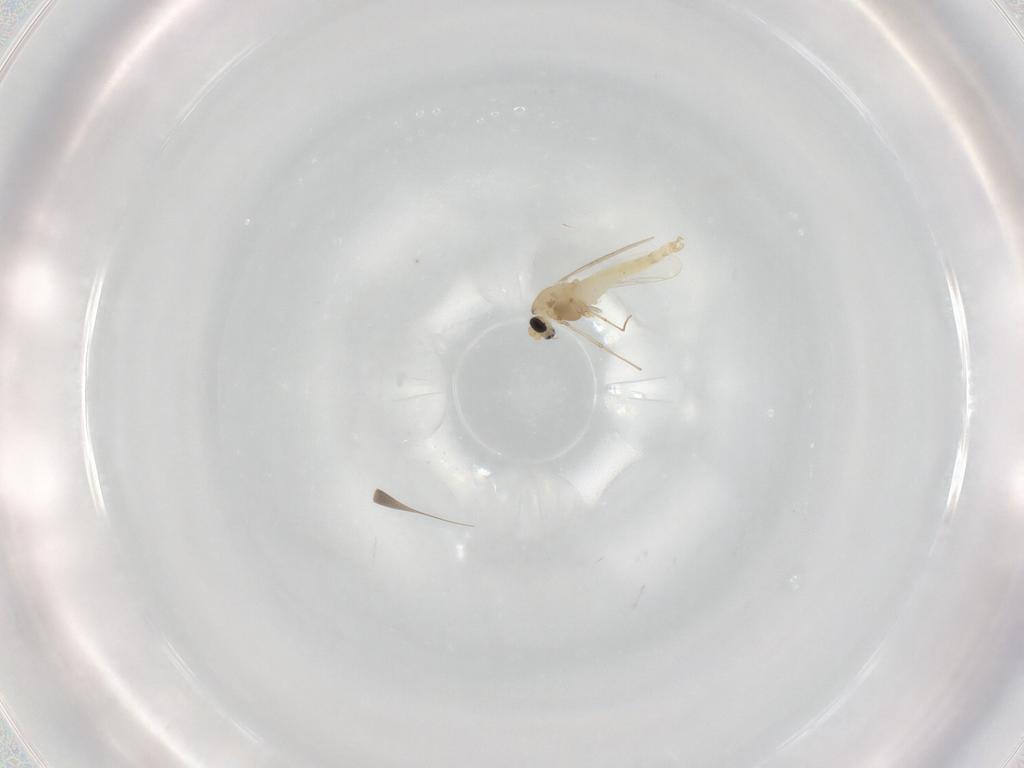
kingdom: Animalia
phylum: Arthropoda
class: Insecta
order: Diptera
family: Chironomidae
